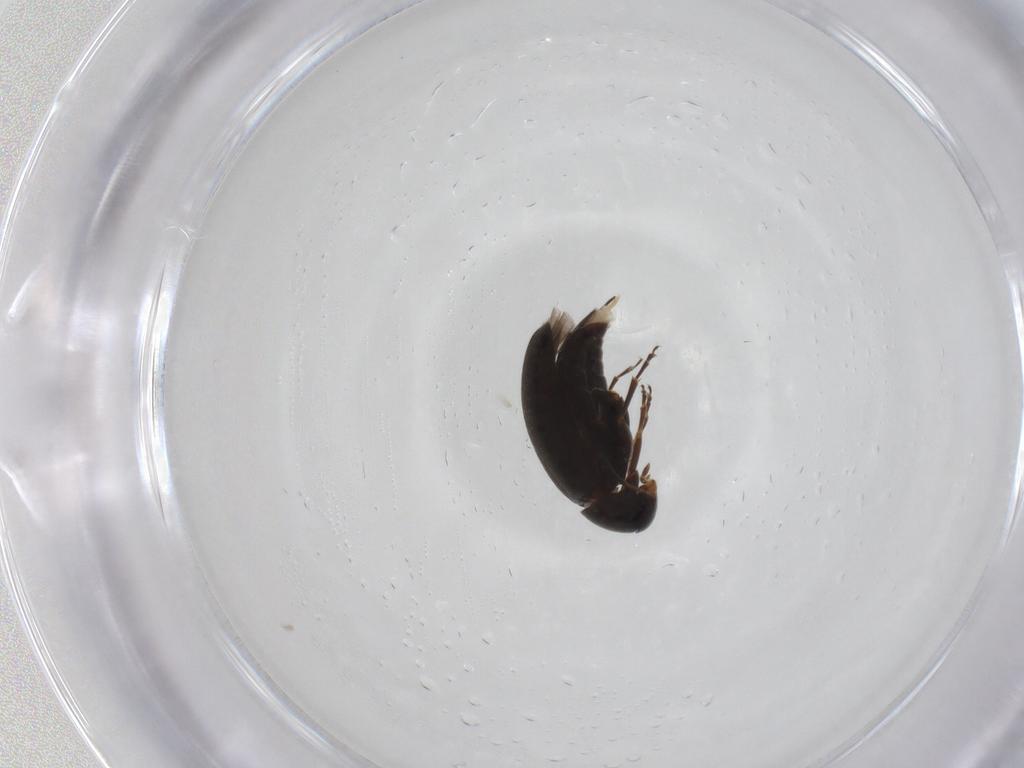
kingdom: Animalia
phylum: Arthropoda
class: Insecta
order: Coleoptera
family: Scraptiidae
